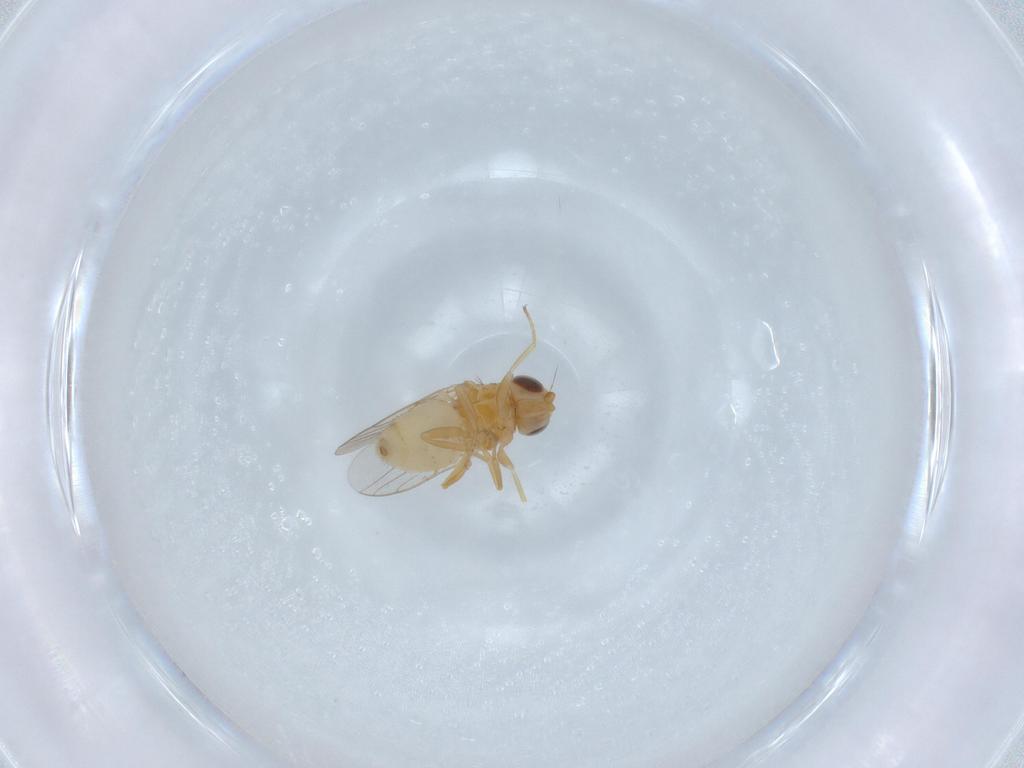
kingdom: Animalia
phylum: Arthropoda
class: Insecta
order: Diptera
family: Chloropidae
